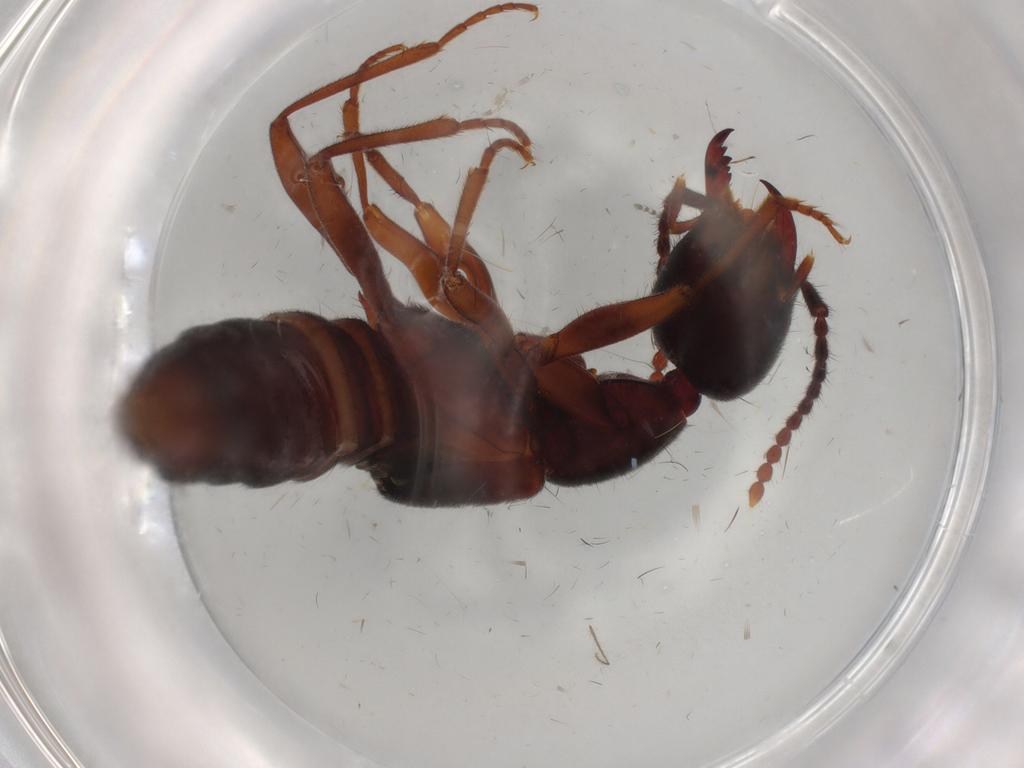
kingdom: Animalia
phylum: Arthropoda
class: Insecta
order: Coleoptera
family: Staphylinidae
